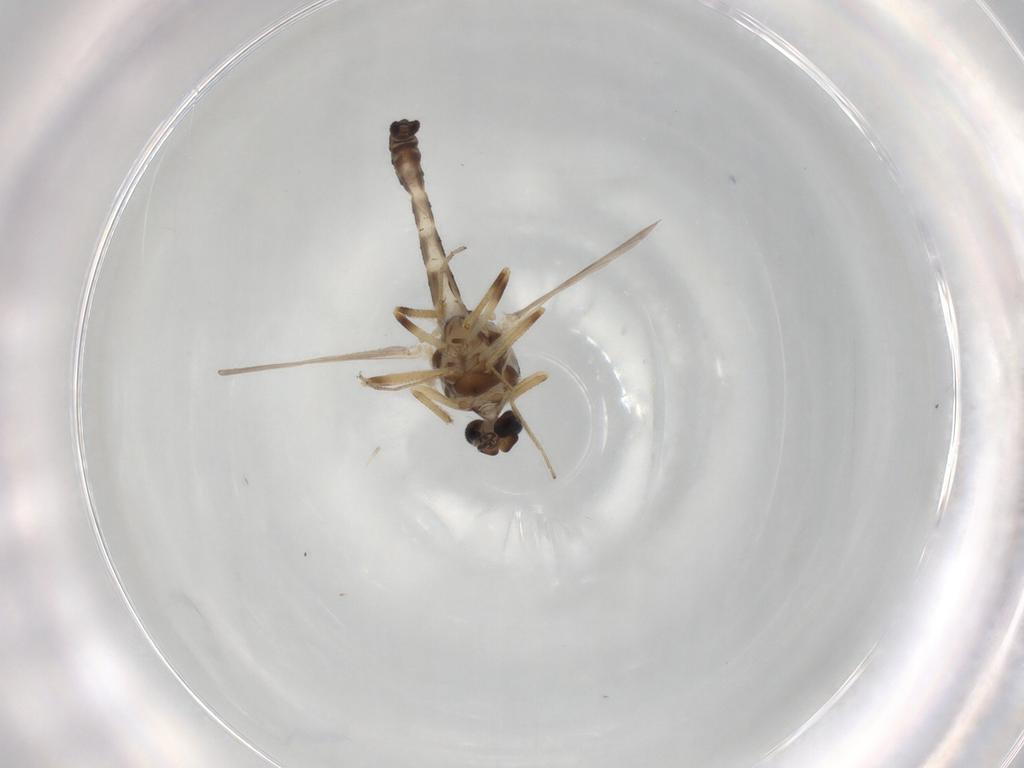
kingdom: Animalia
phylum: Arthropoda
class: Insecta
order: Diptera
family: Ceratopogonidae
